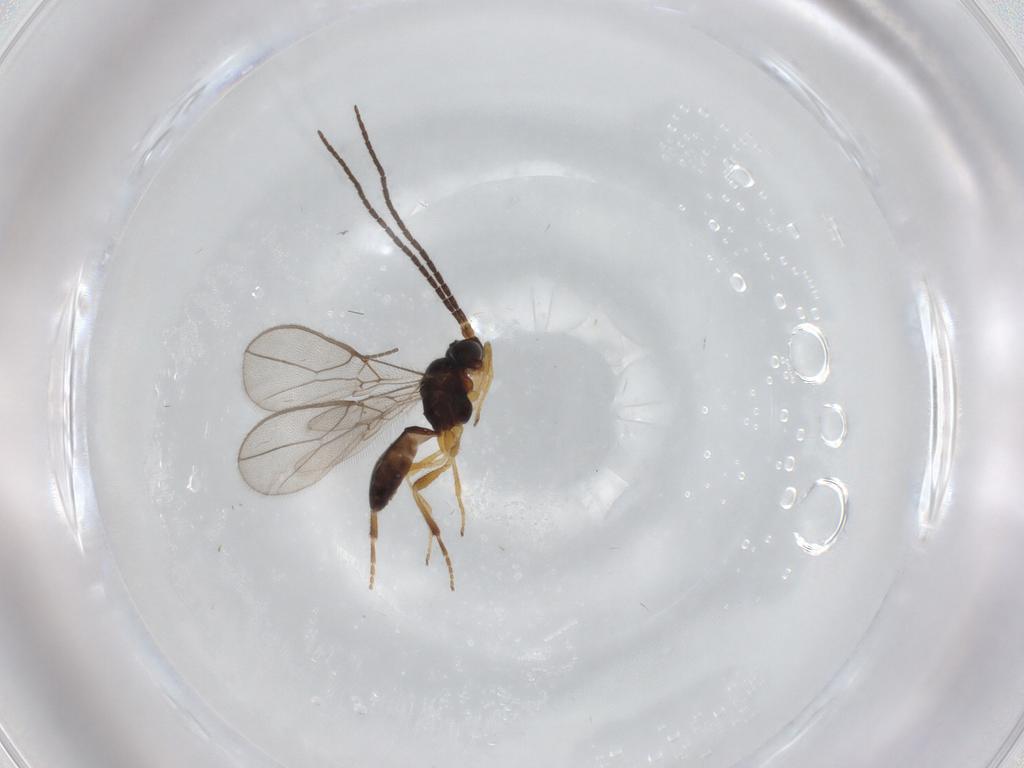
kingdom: Animalia
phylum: Arthropoda
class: Insecta
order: Hymenoptera
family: Braconidae
